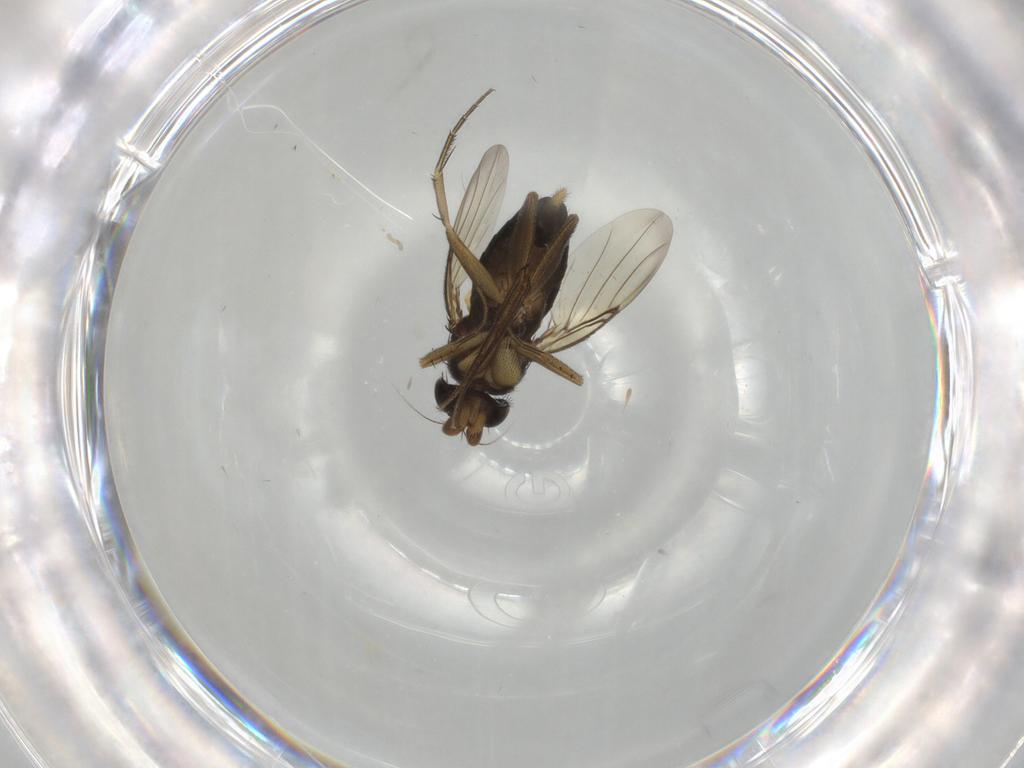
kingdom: Animalia
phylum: Arthropoda
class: Insecta
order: Diptera
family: Phoridae
